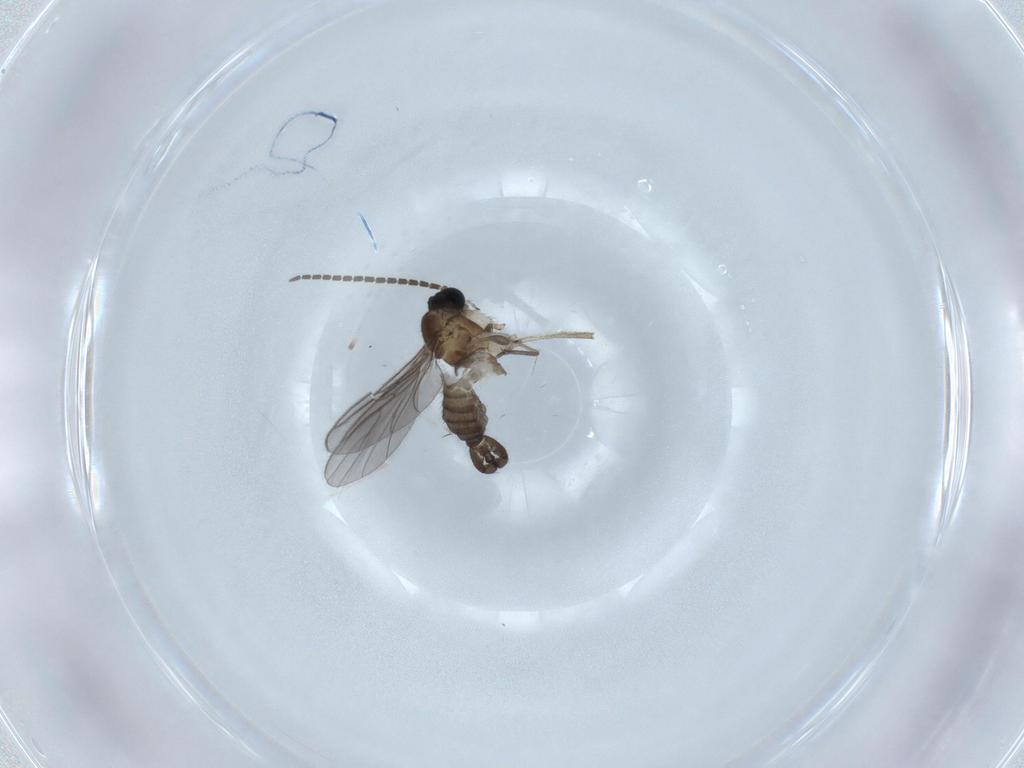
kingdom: Animalia
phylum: Arthropoda
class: Insecta
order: Diptera
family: Sciaridae
